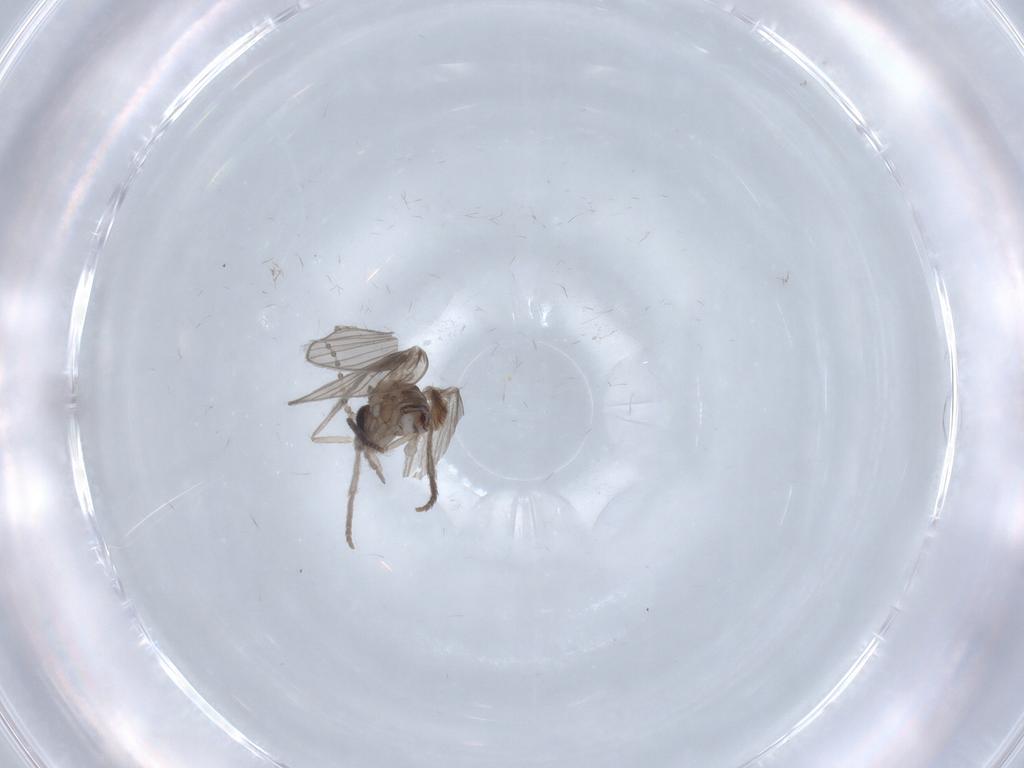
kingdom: Animalia
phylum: Arthropoda
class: Insecta
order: Diptera
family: Psychodidae
